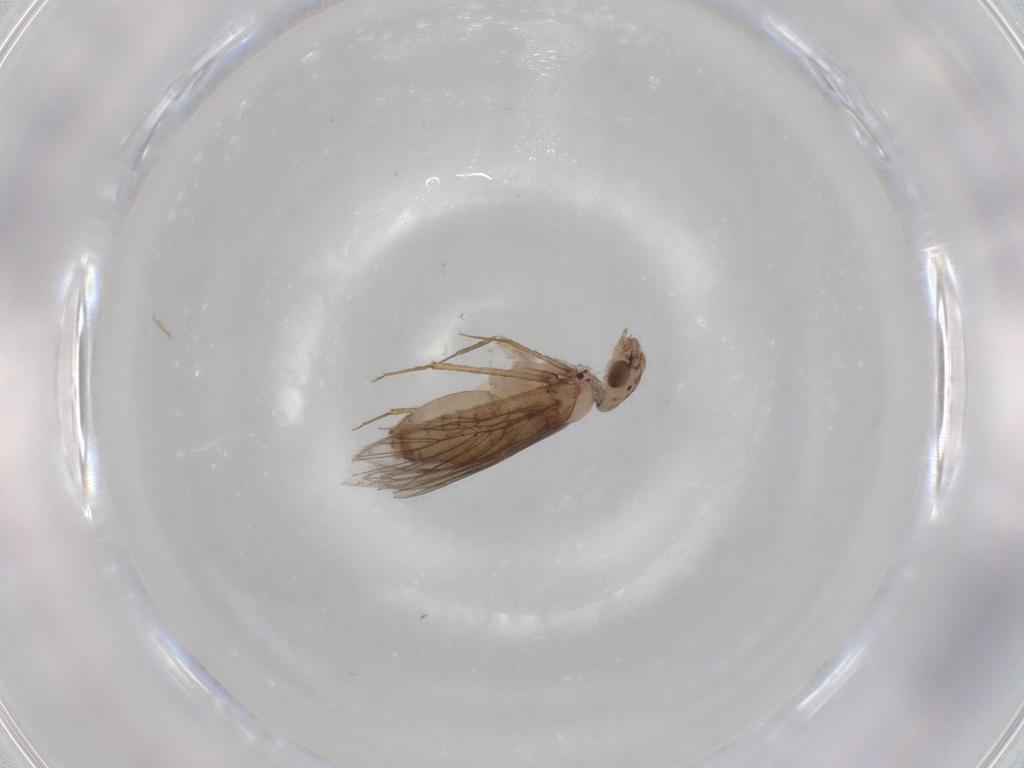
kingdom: Animalia
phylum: Arthropoda
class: Insecta
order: Psocodea
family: Lepidopsocidae
